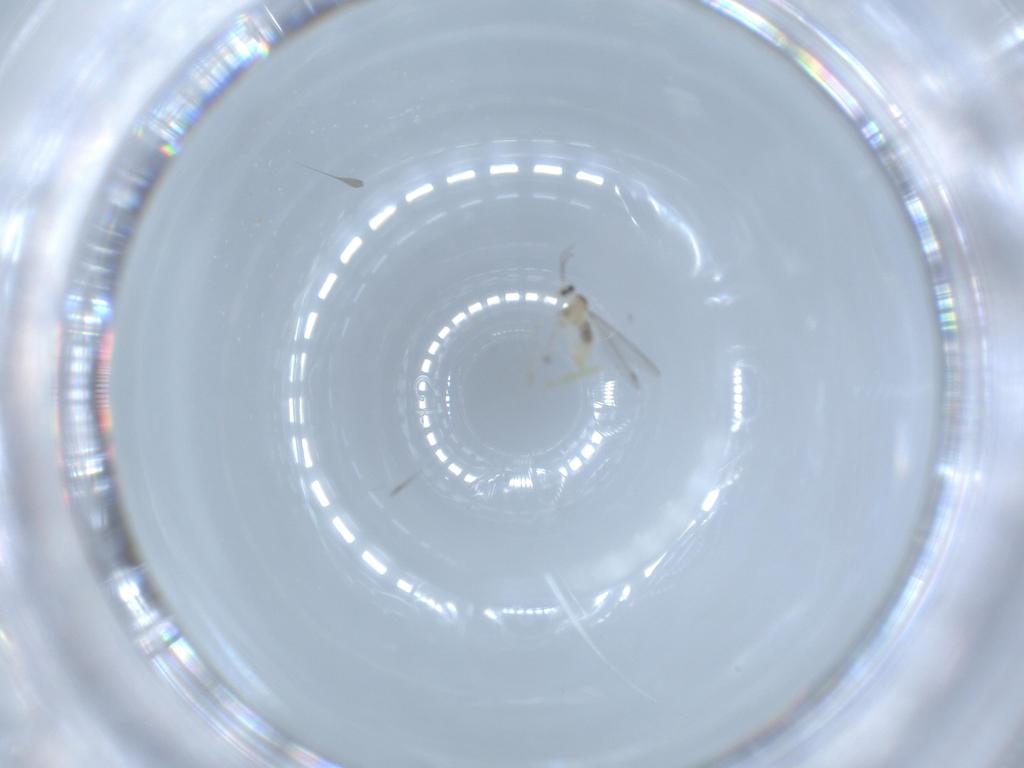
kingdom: Animalia
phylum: Arthropoda
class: Insecta
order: Diptera
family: Cecidomyiidae
